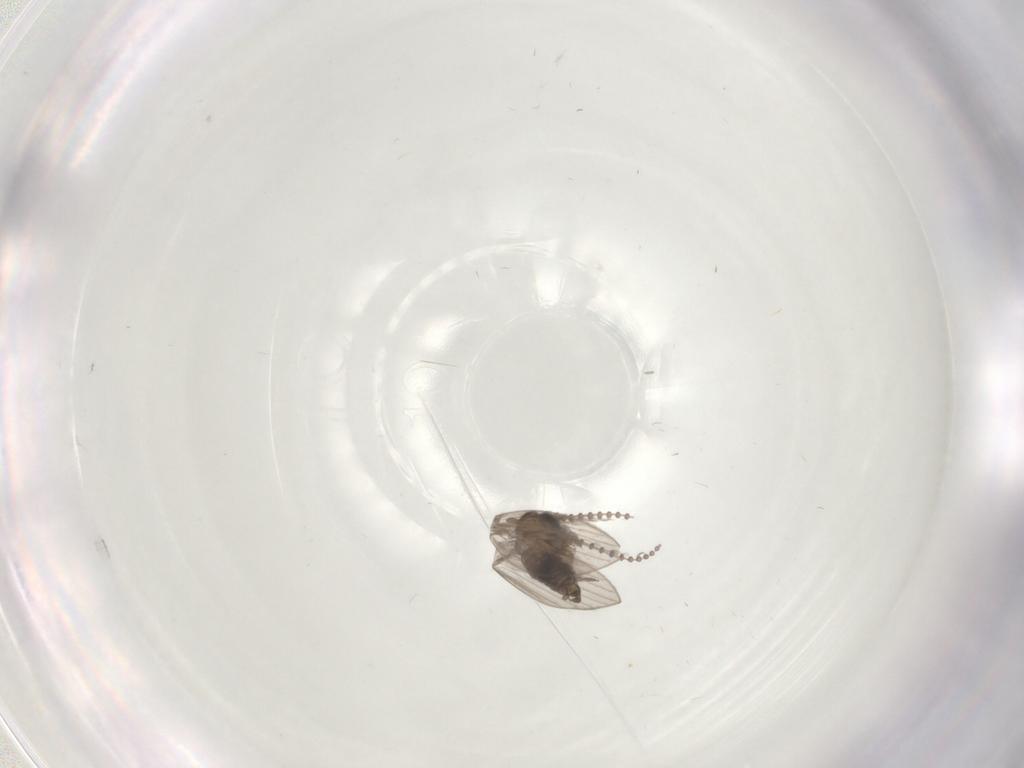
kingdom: Animalia
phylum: Arthropoda
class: Insecta
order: Diptera
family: Psychodidae
